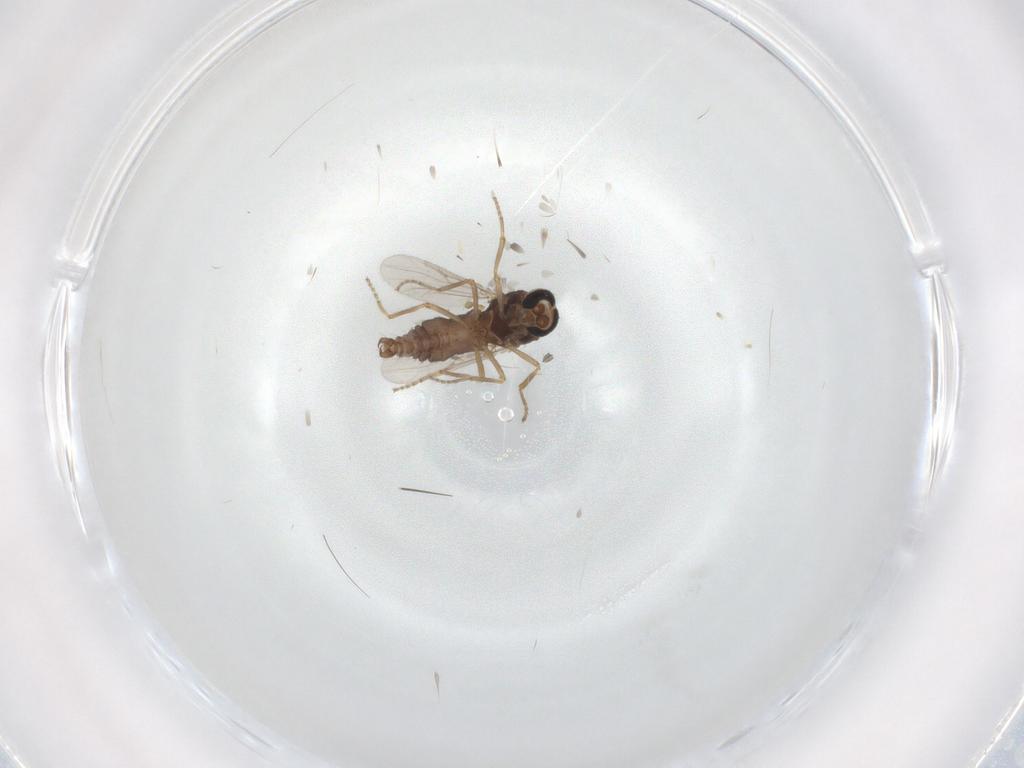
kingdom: Animalia
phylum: Arthropoda
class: Insecta
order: Diptera
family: Ceratopogonidae
